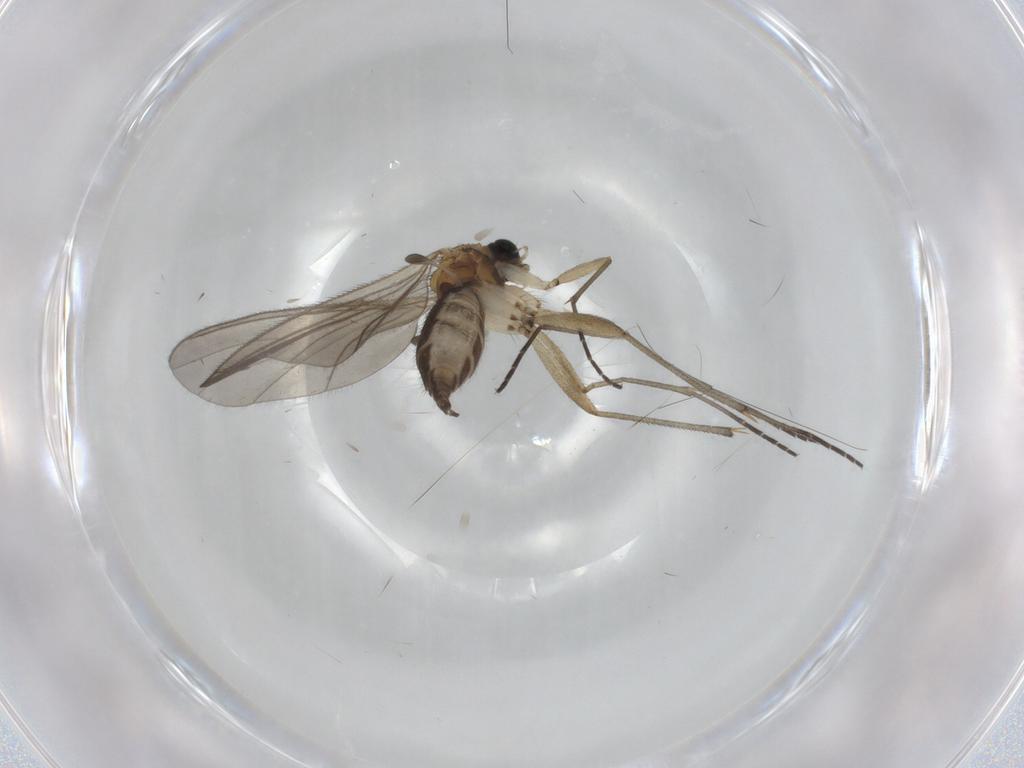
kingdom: Animalia
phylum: Arthropoda
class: Insecta
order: Diptera
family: Sciaridae
